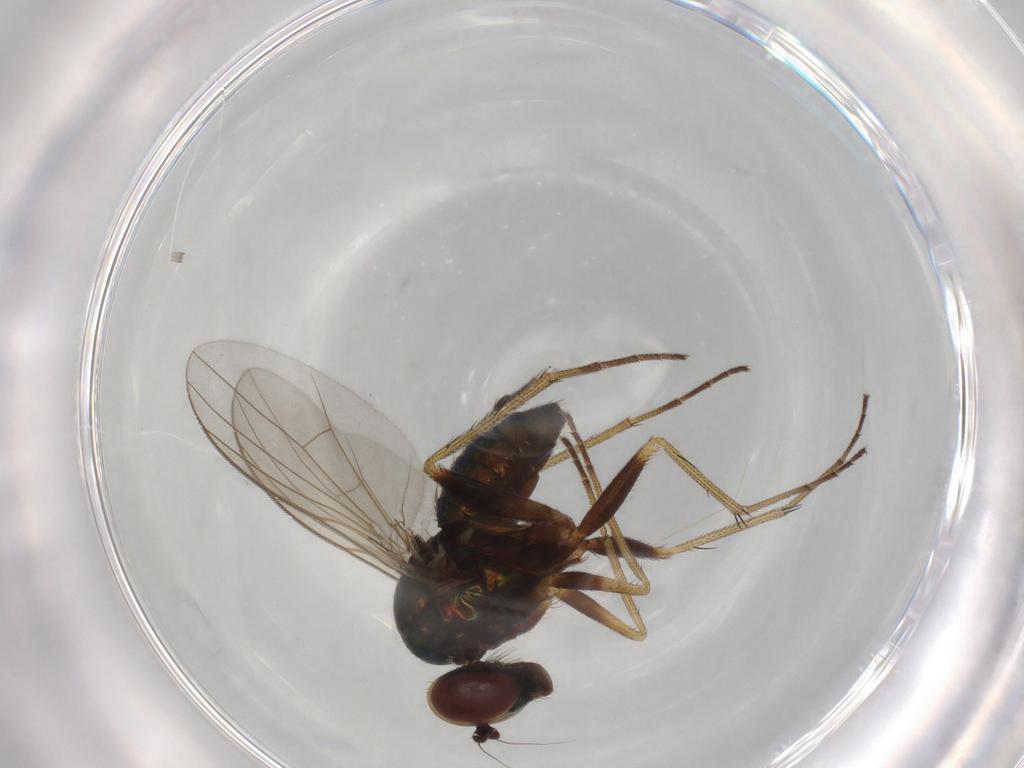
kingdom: Animalia
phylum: Arthropoda
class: Insecta
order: Diptera
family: Dolichopodidae
